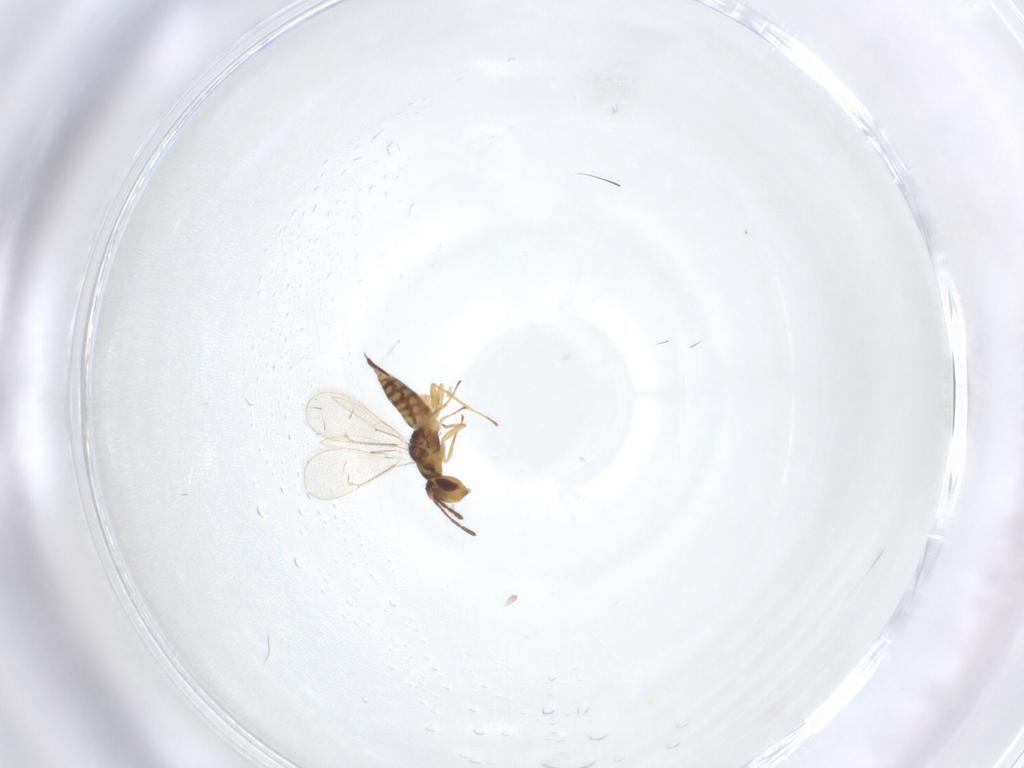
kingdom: Animalia
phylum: Arthropoda
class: Insecta
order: Hymenoptera
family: Eulophidae
